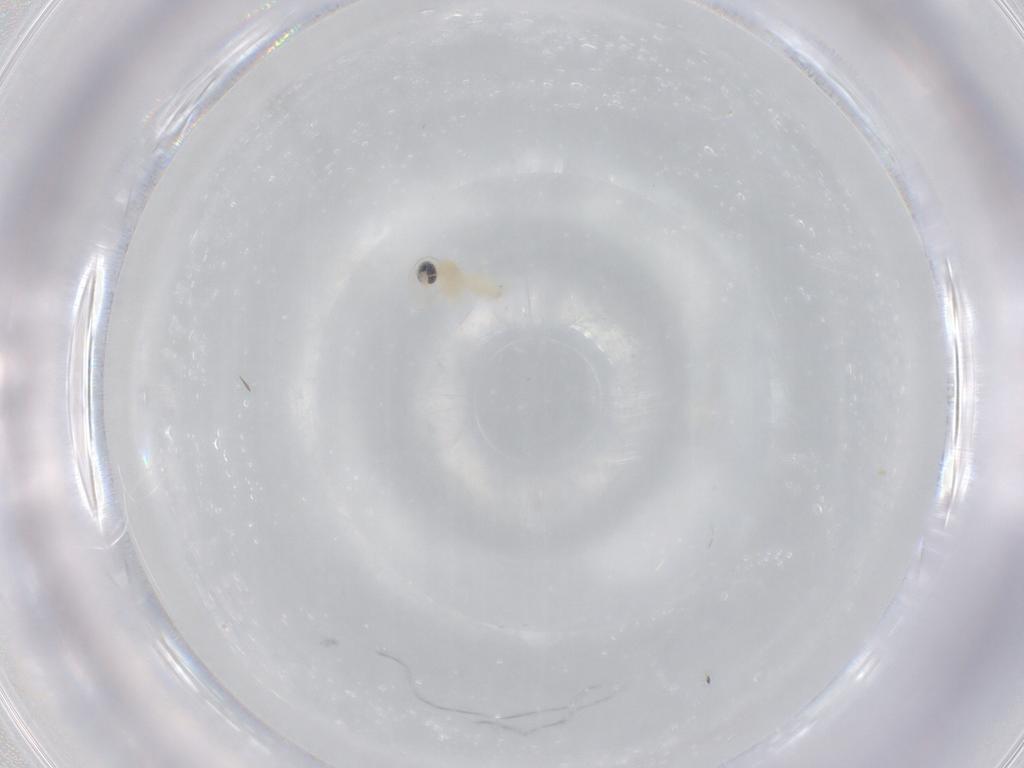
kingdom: Animalia
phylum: Arthropoda
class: Insecta
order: Diptera
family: Cecidomyiidae
